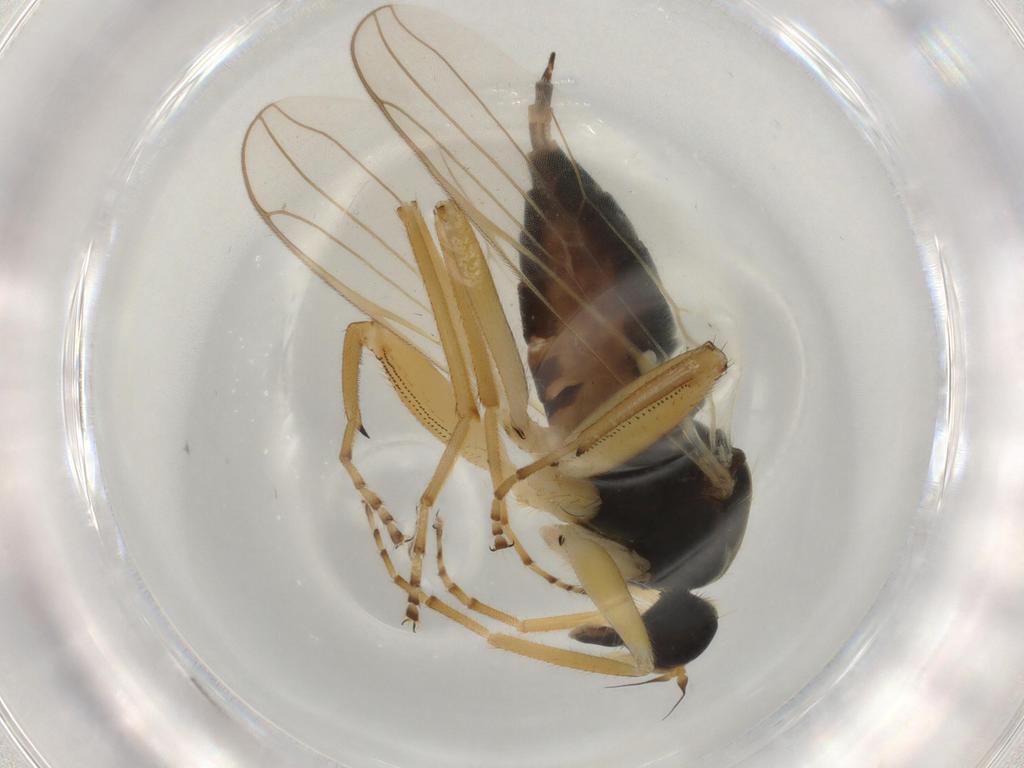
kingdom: Animalia
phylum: Arthropoda
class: Insecta
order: Diptera
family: Hybotidae
